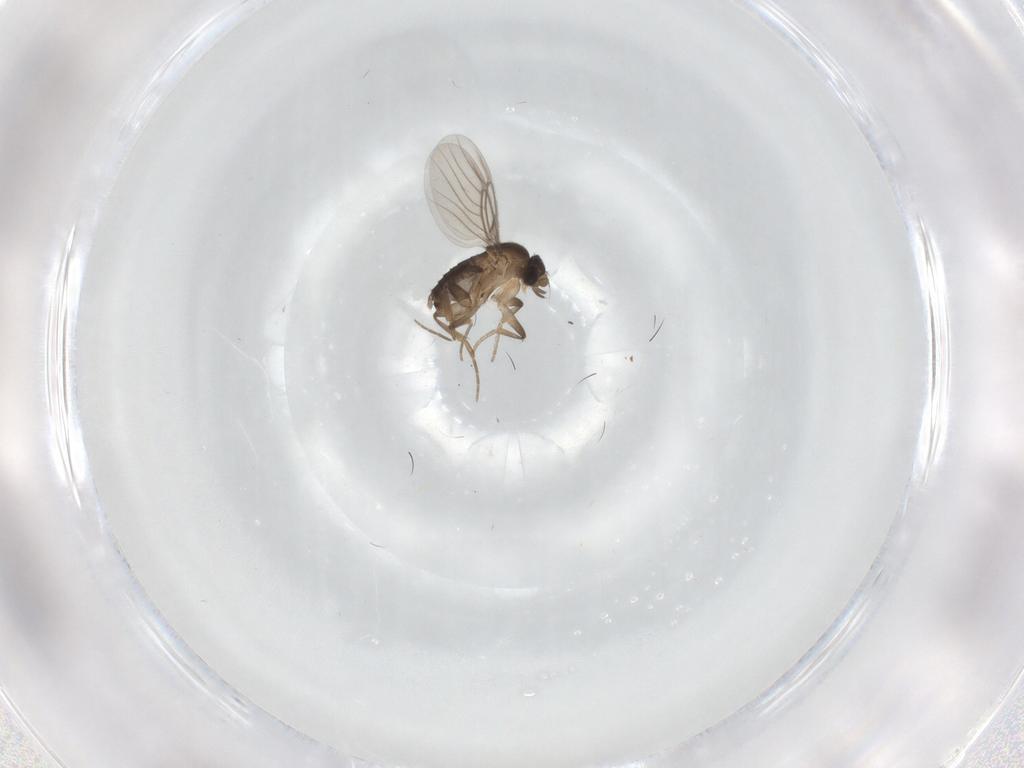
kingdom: Animalia
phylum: Arthropoda
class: Insecta
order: Diptera
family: Phoridae
